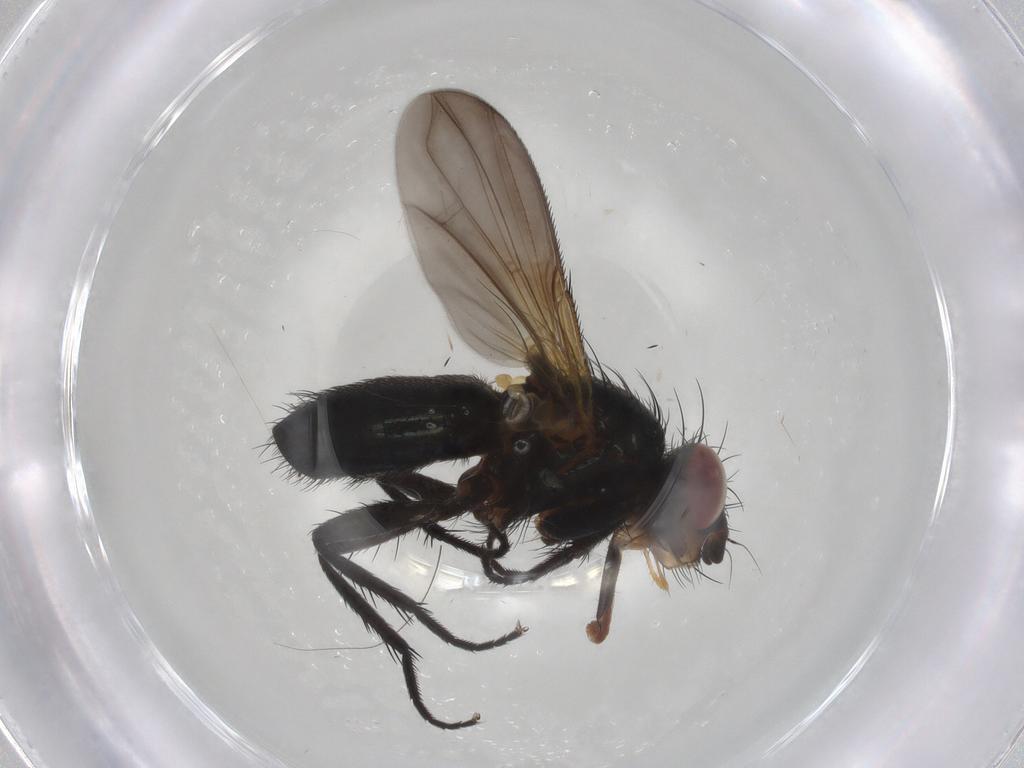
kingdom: Animalia
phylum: Arthropoda
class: Insecta
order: Diptera
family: Calliphoridae
